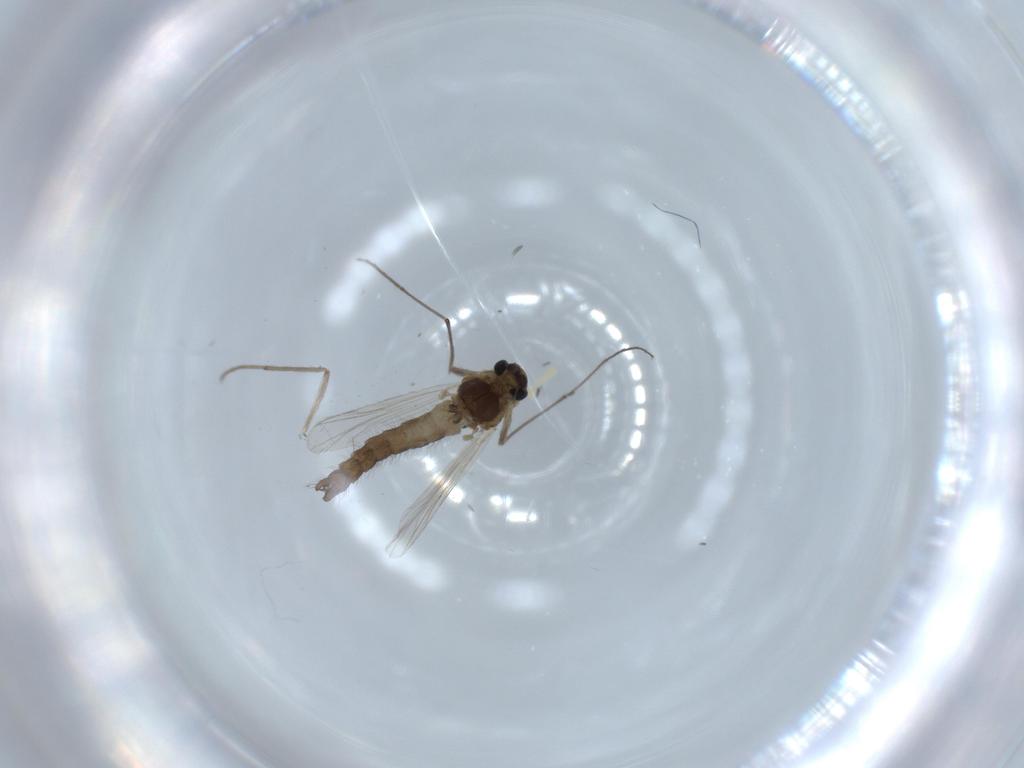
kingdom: Animalia
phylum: Arthropoda
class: Insecta
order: Diptera
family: Chironomidae
